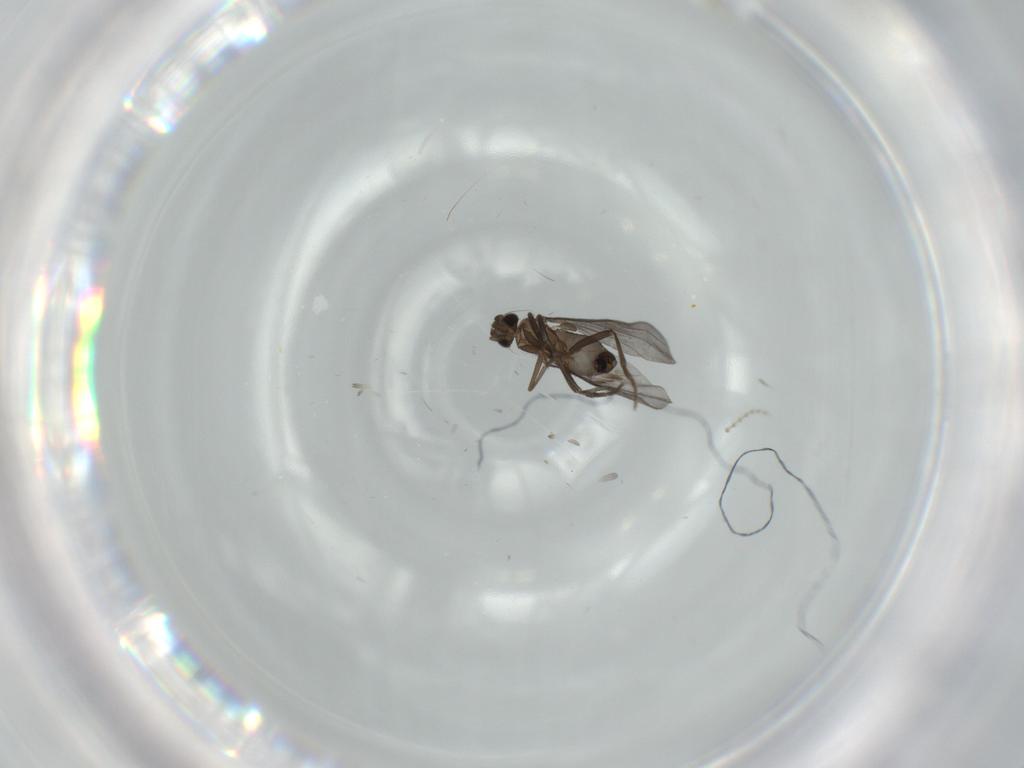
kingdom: Animalia
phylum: Arthropoda
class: Insecta
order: Diptera
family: Phoridae
